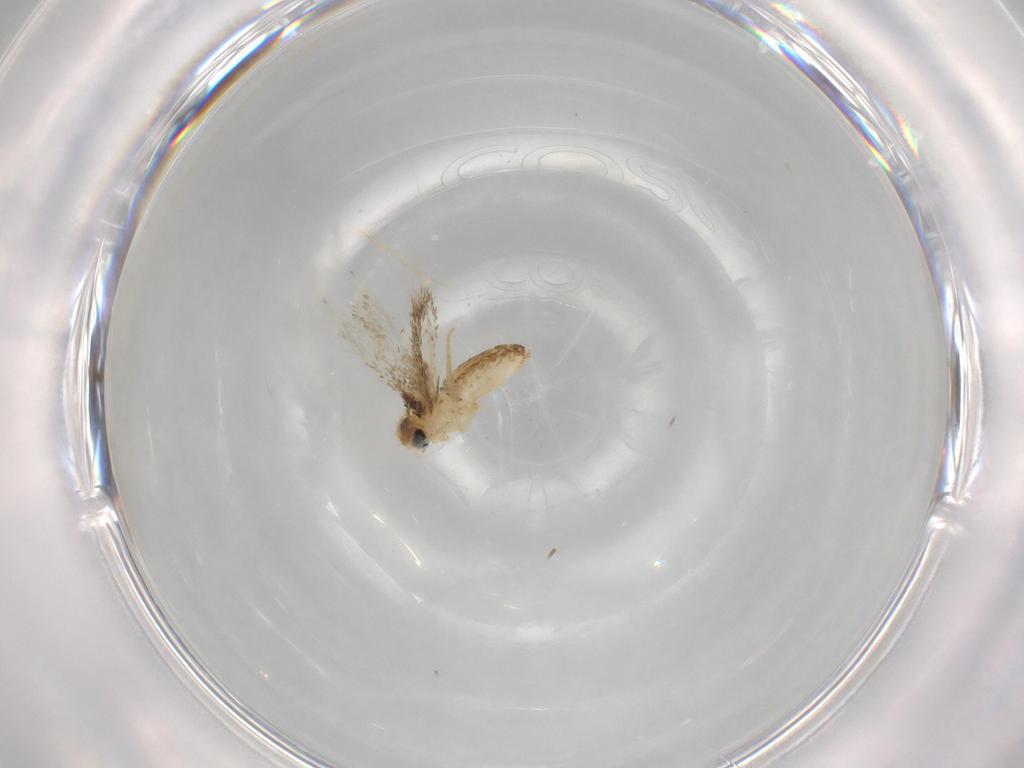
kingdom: Animalia
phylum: Arthropoda
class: Insecta
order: Lepidoptera
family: Nepticulidae
